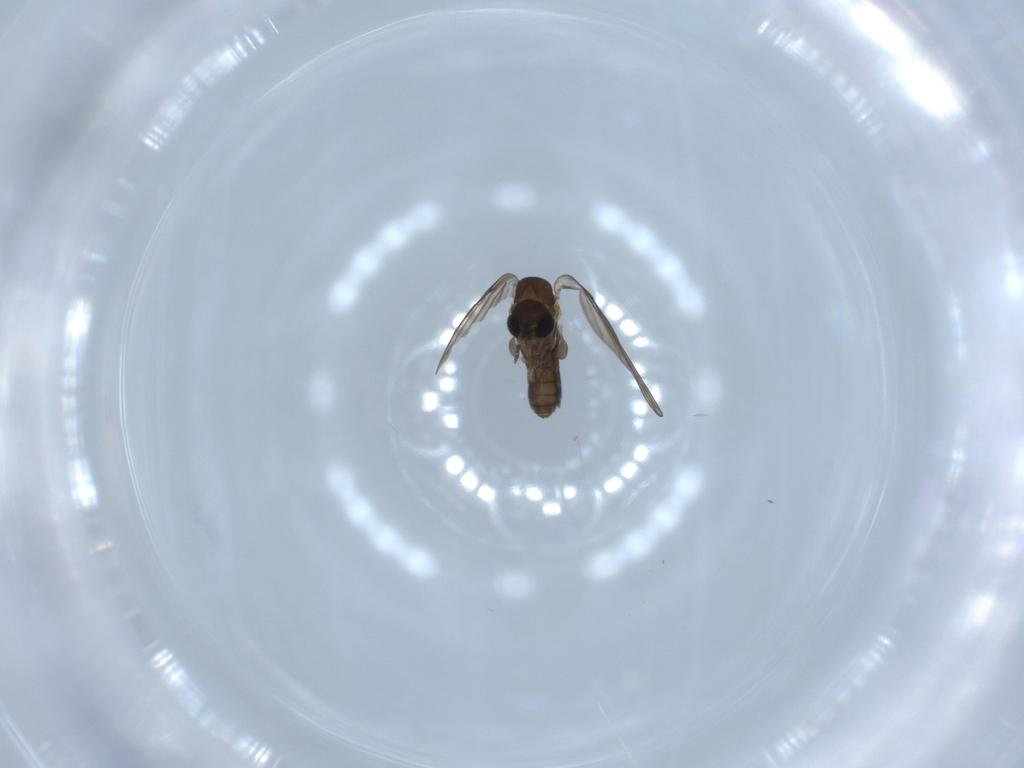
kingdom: Animalia
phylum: Arthropoda
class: Insecta
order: Diptera
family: Psychodidae
